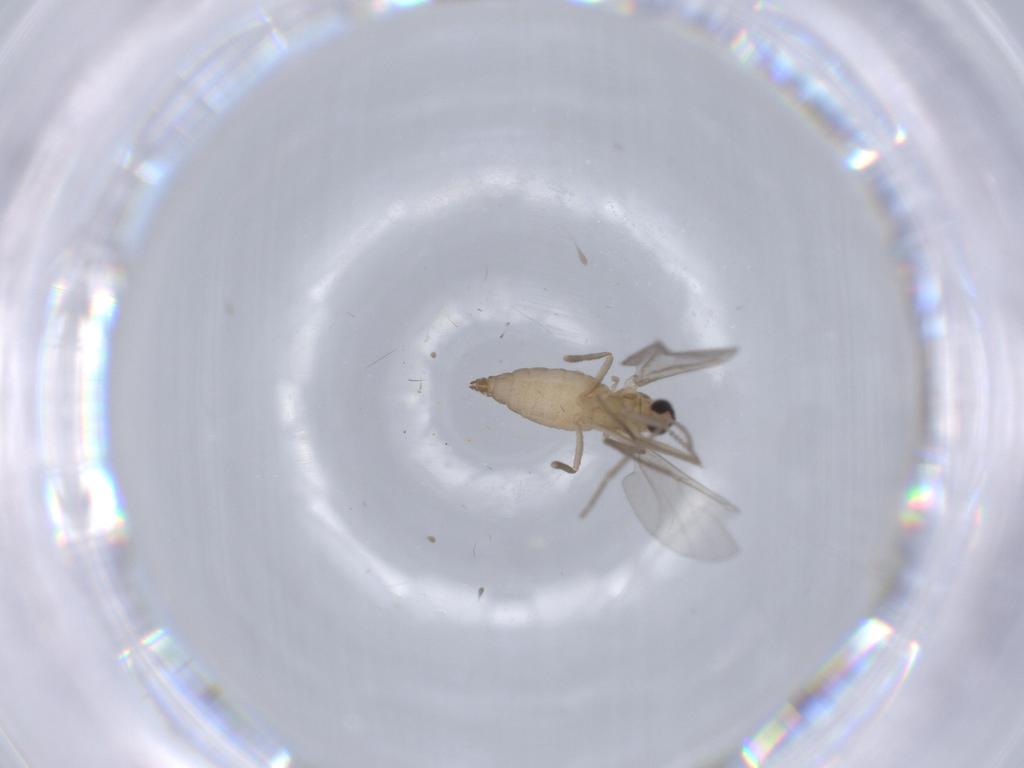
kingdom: Animalia
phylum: Arthropoda
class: Insecta
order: Diptera
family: Cecidomyiidae
